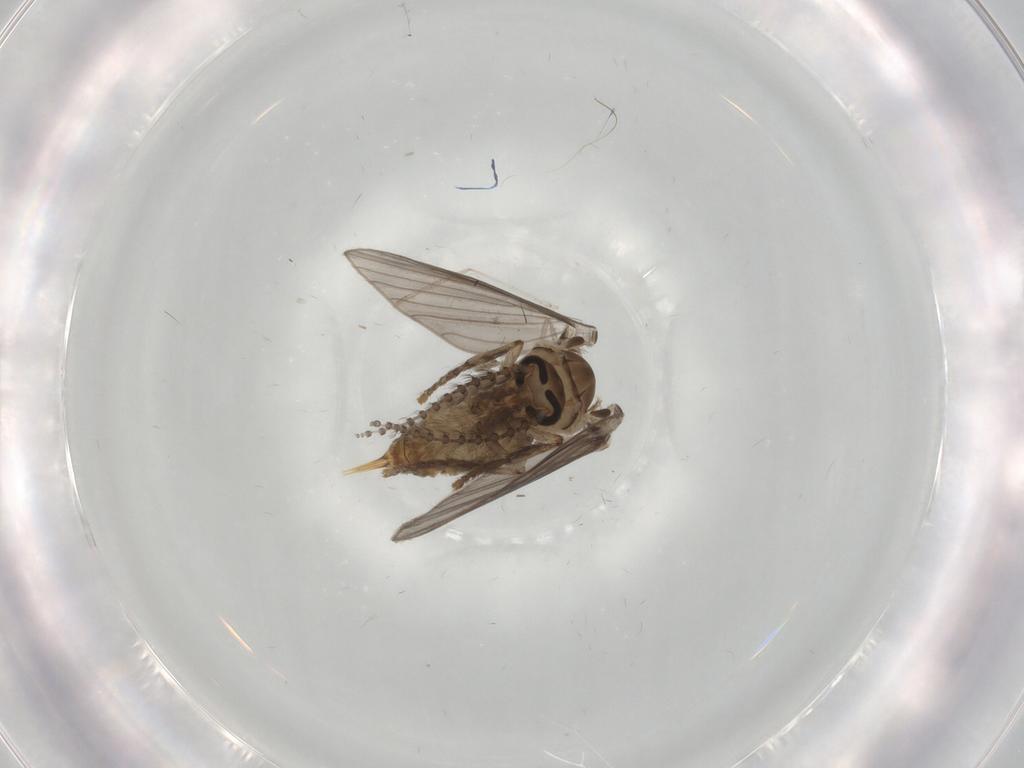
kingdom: Animalia
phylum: Arthropoda
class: Insecta
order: Diptera
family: Psychodidae
